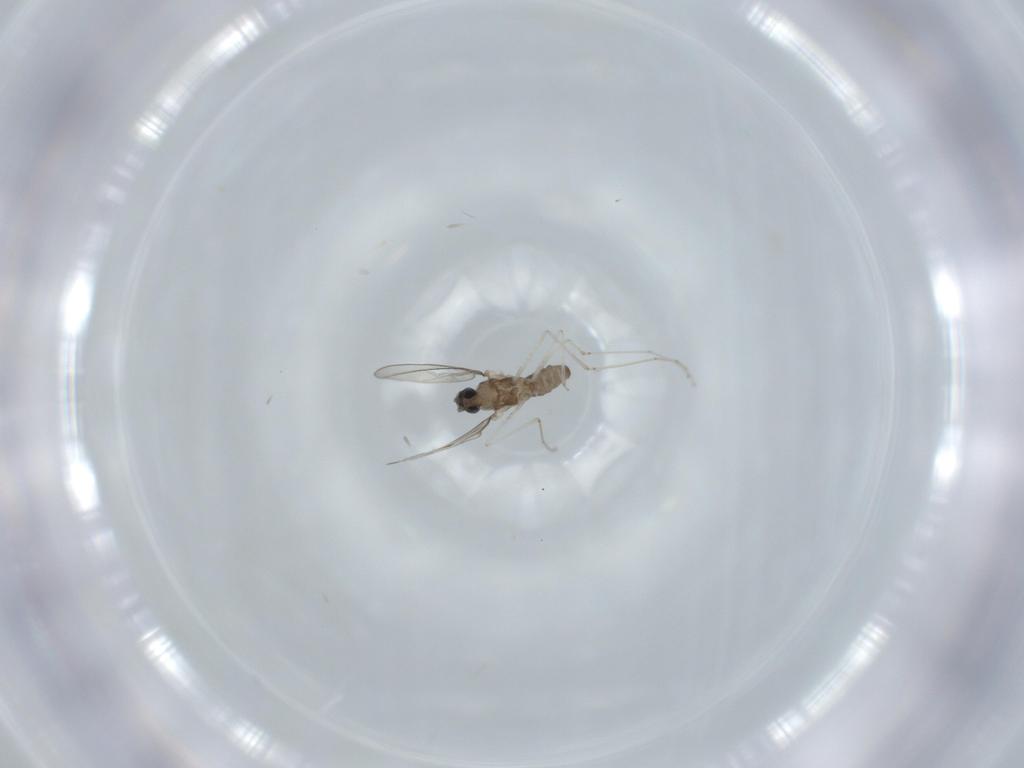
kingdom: Animalia
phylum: Arthropoda
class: Insecta
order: Diptera
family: Cecidomyiidae
